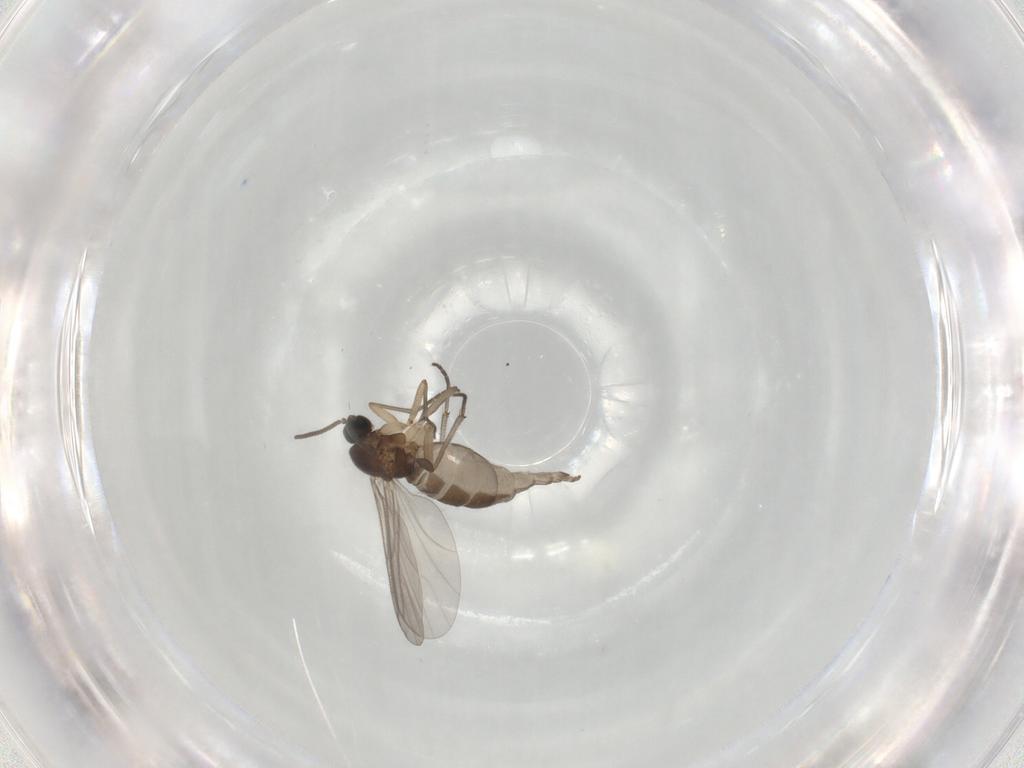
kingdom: Animalia
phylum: Arthropoda
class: Insecta
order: Diptera
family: Sciaridae
